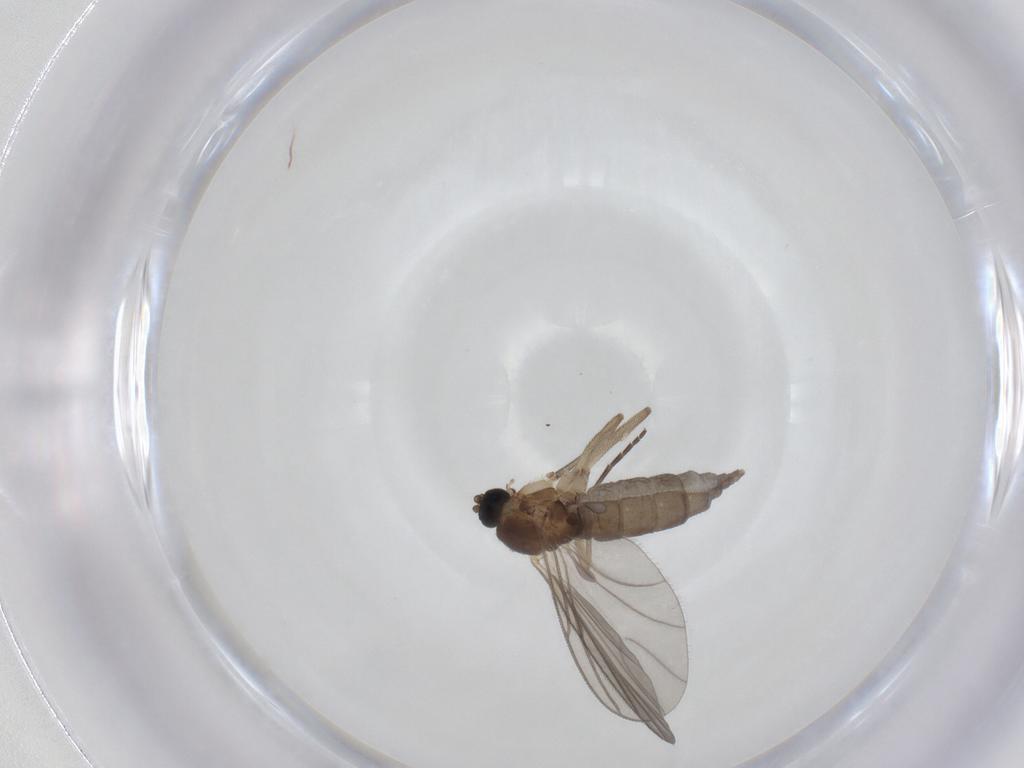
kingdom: Animalia
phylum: Arthropoda
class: Insecta
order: Diptera
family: Sciaridae
